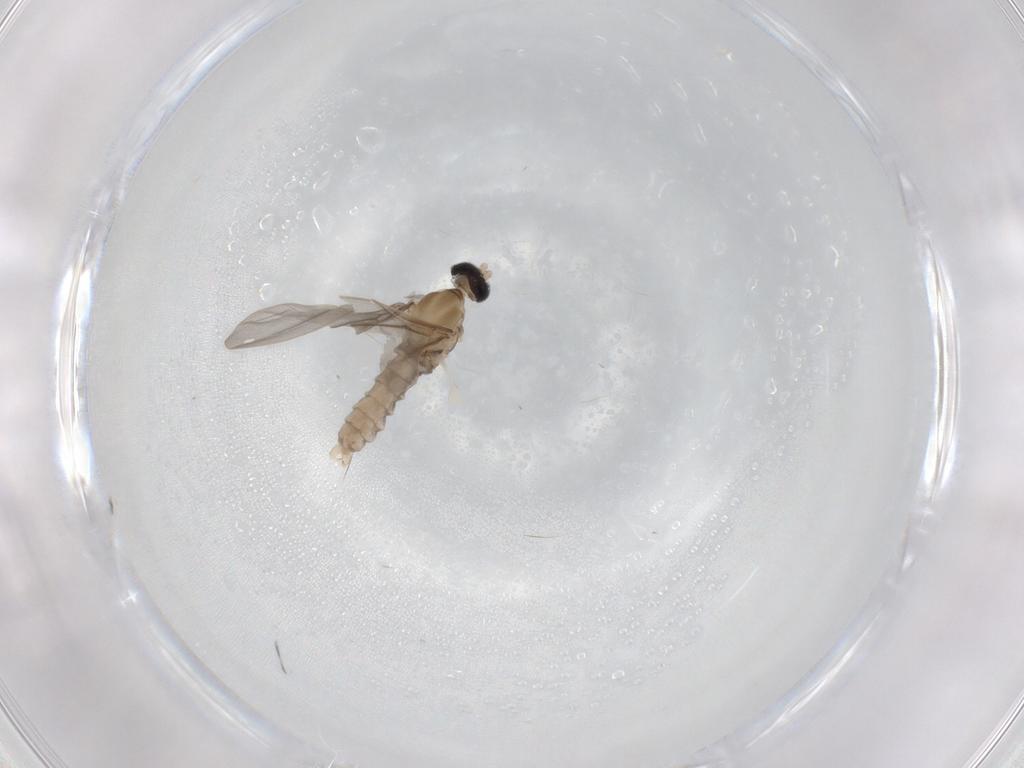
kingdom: Animalia
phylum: Arthropoda
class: Insecta
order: Diptera
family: Cecidomyiidae
